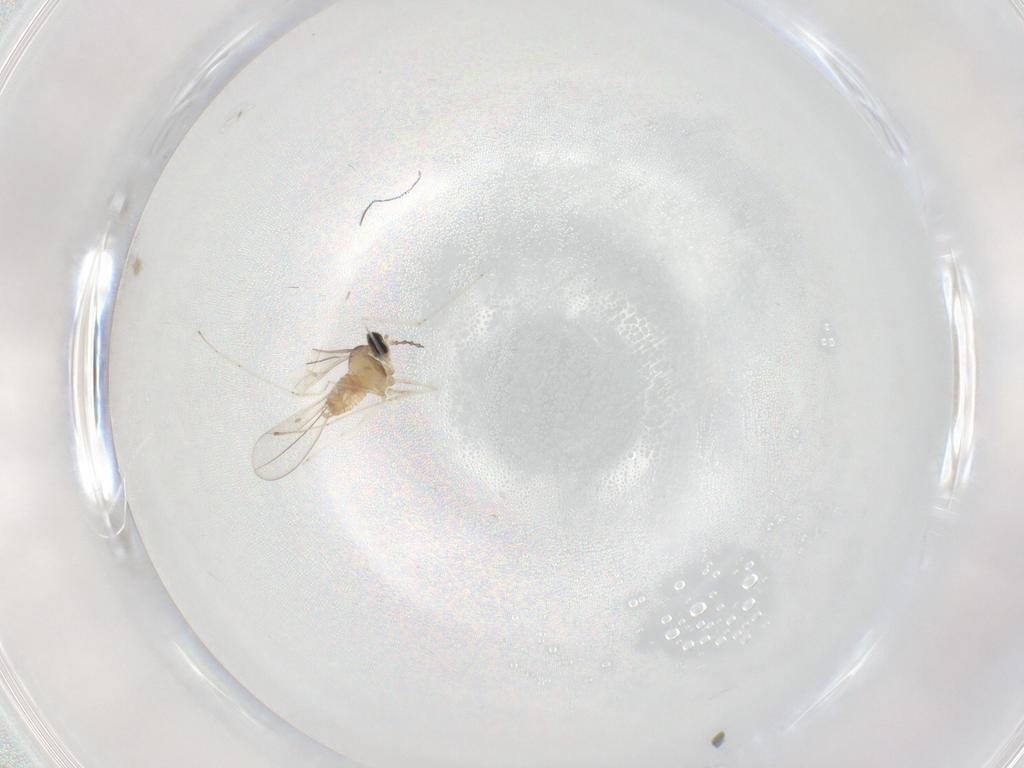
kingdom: Animalia
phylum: Arthropoda
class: Insecta
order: Diptera
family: Cecidomyiidae
